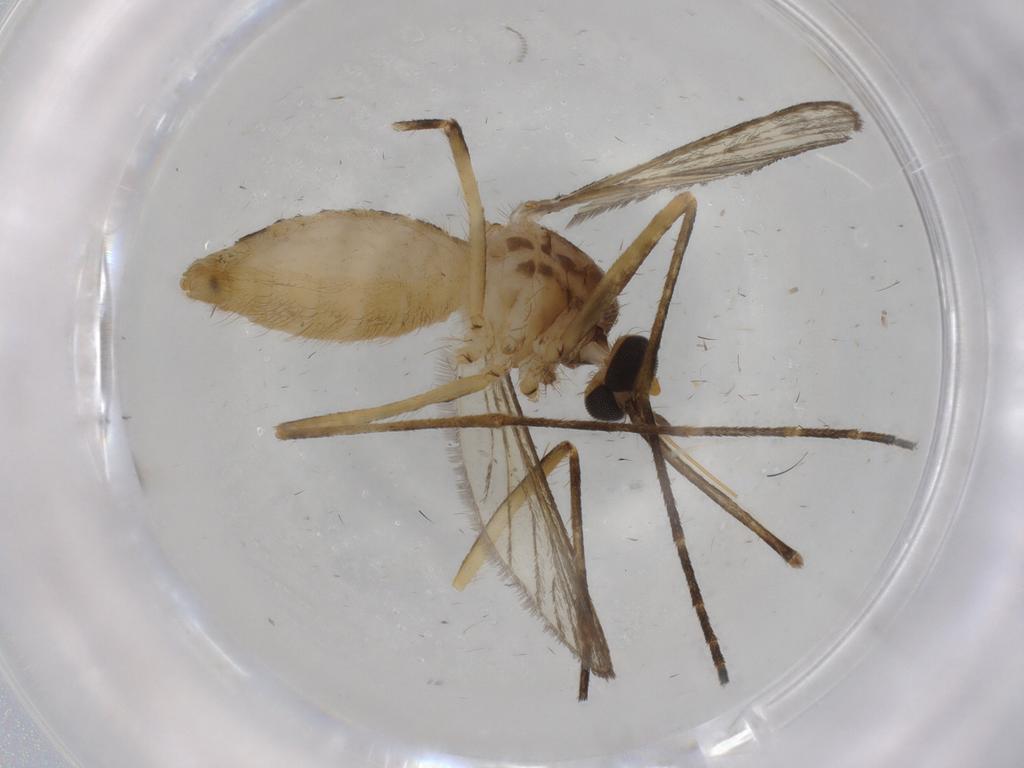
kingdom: Animalia
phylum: Arthropoda
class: Insecta
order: Diptera
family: Culicidae
